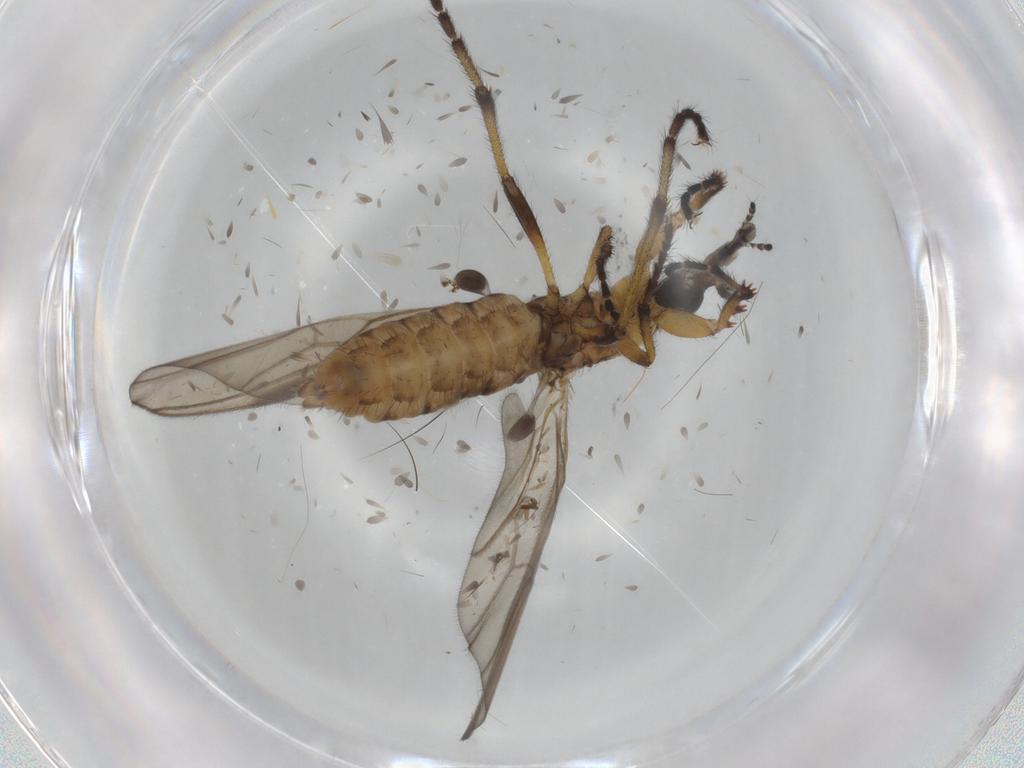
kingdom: Animalia
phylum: Arthropoda
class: Insecta
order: Diptera
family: Bibionidae
